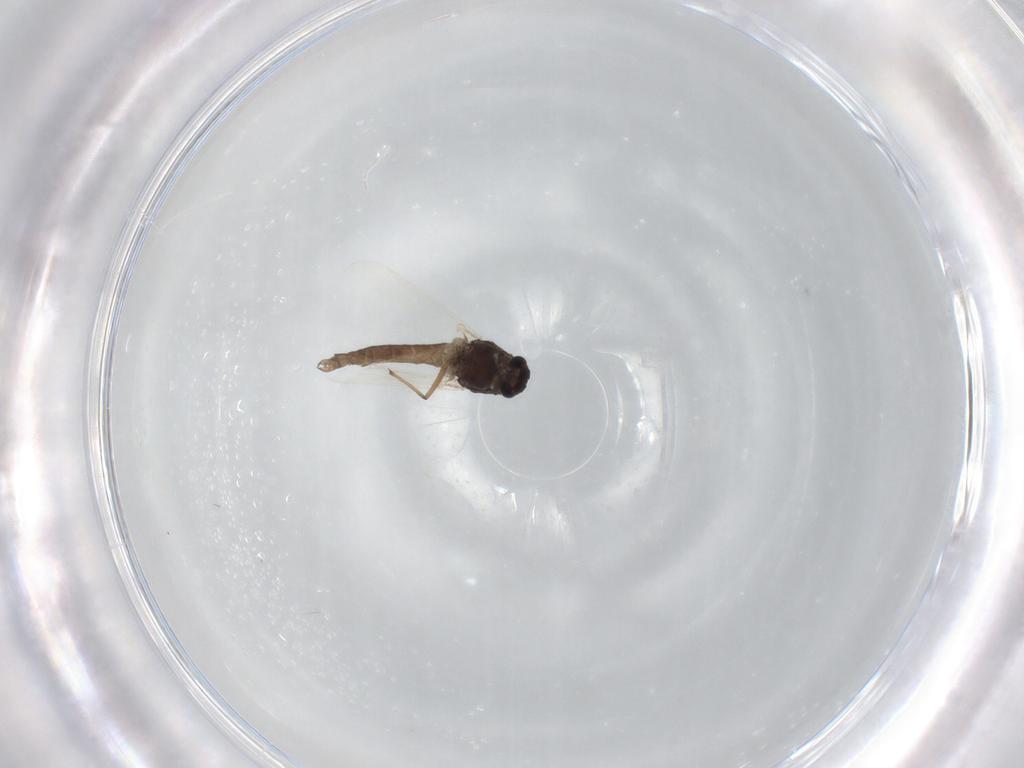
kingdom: Animalia
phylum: Arthropoda
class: Insecta
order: Diptera
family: Chironomidae
